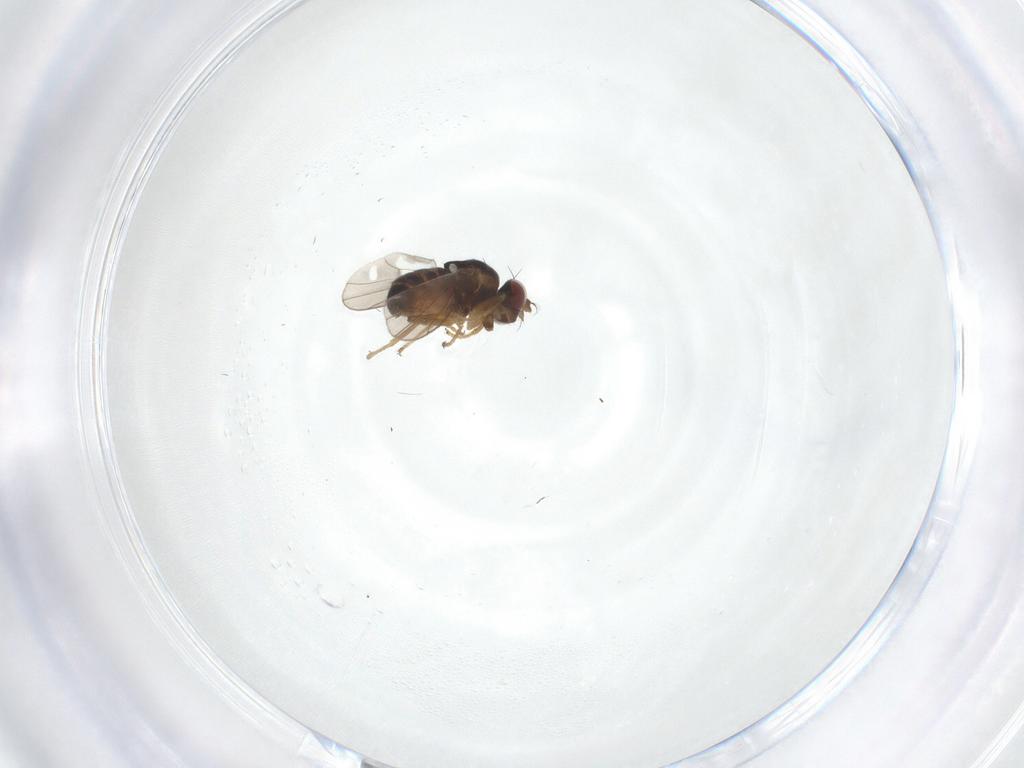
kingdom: Animalia
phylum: Arthropoda
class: Insecta
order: Diptera
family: Ephydridae
